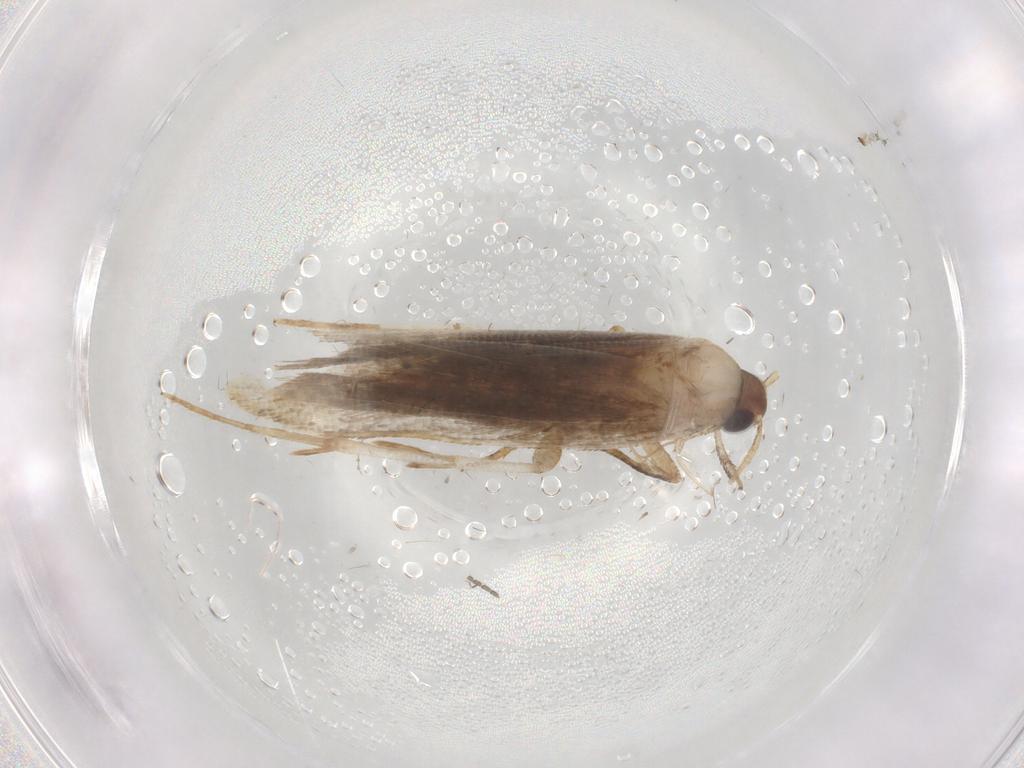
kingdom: Animalia
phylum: Arthropoda
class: Insecta
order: Lepidoptera
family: Gelechiidae
